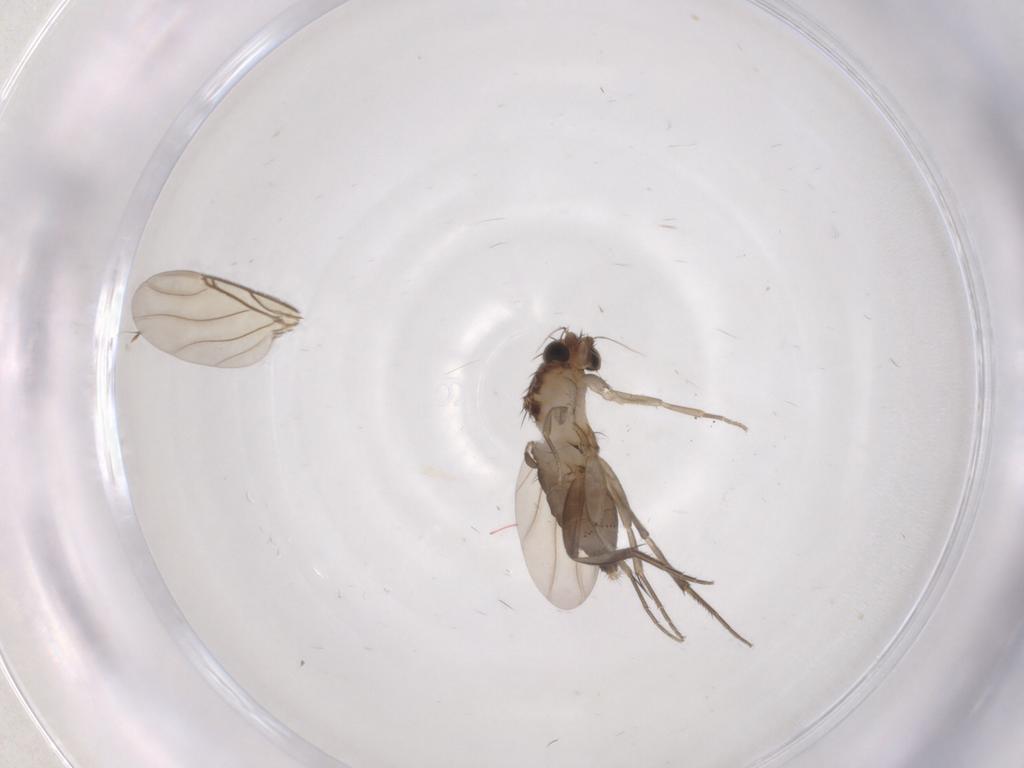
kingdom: Animalia
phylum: Arthropoda
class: Insecta
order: Diptera
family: Phoridae
